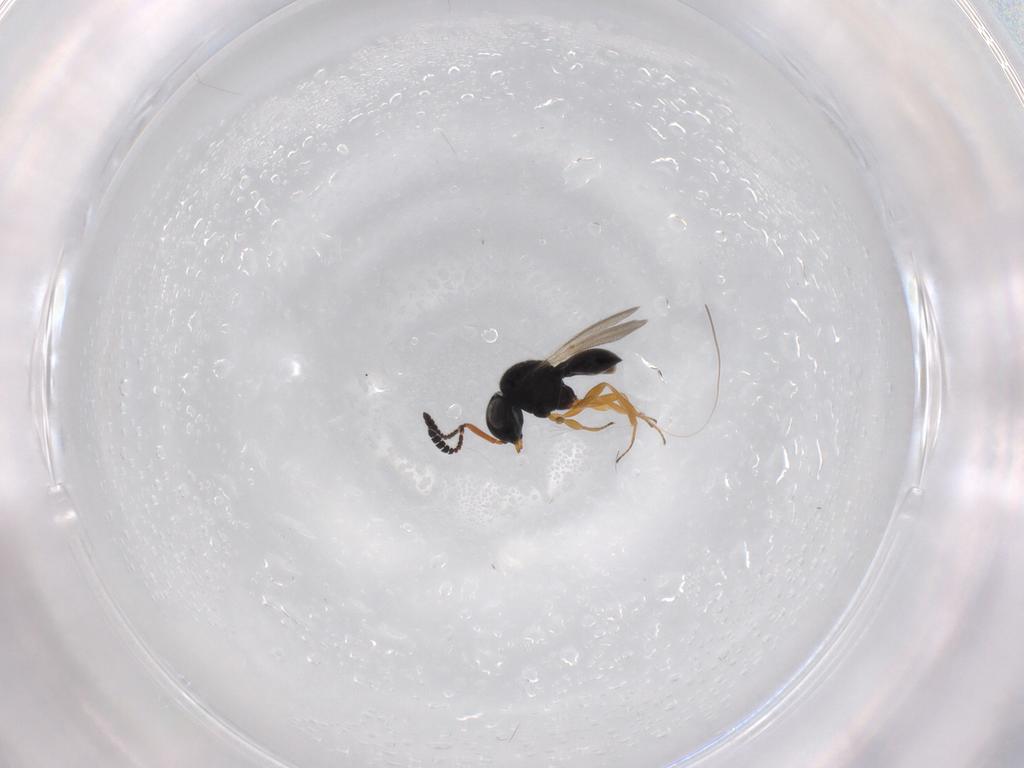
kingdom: Animalia
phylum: Arthropoda
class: Insecta
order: Hymenoptera
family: Scelionidae
